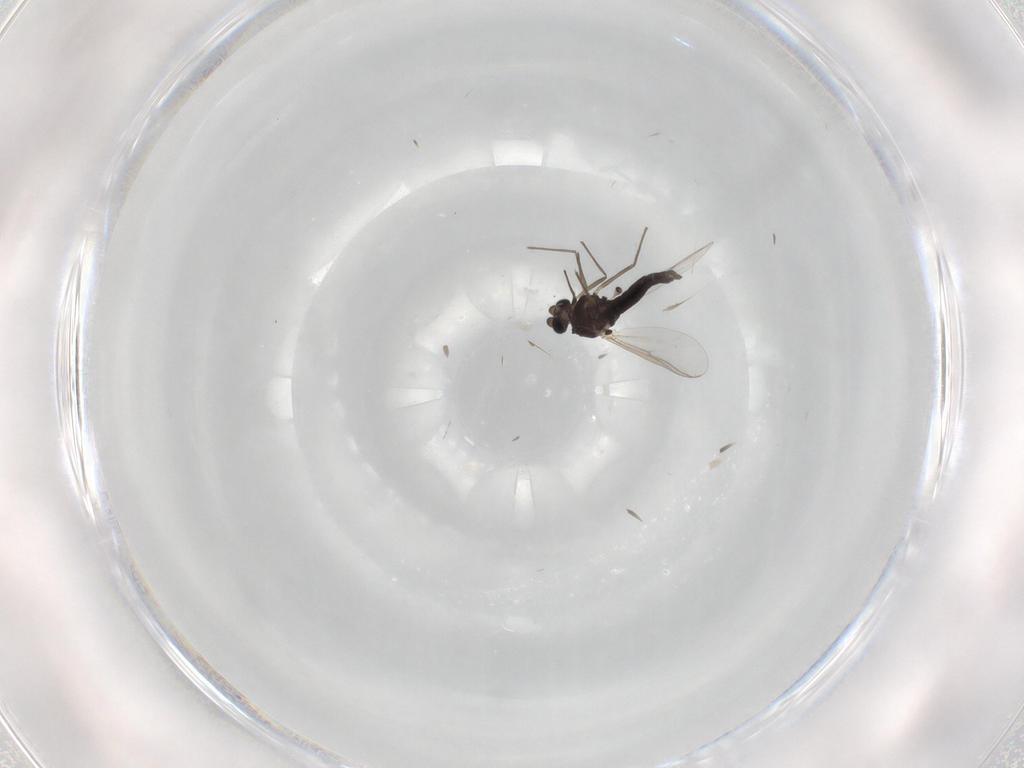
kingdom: Animalia
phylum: Arthropoda
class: Insecta
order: Diptera
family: Chironomidae
